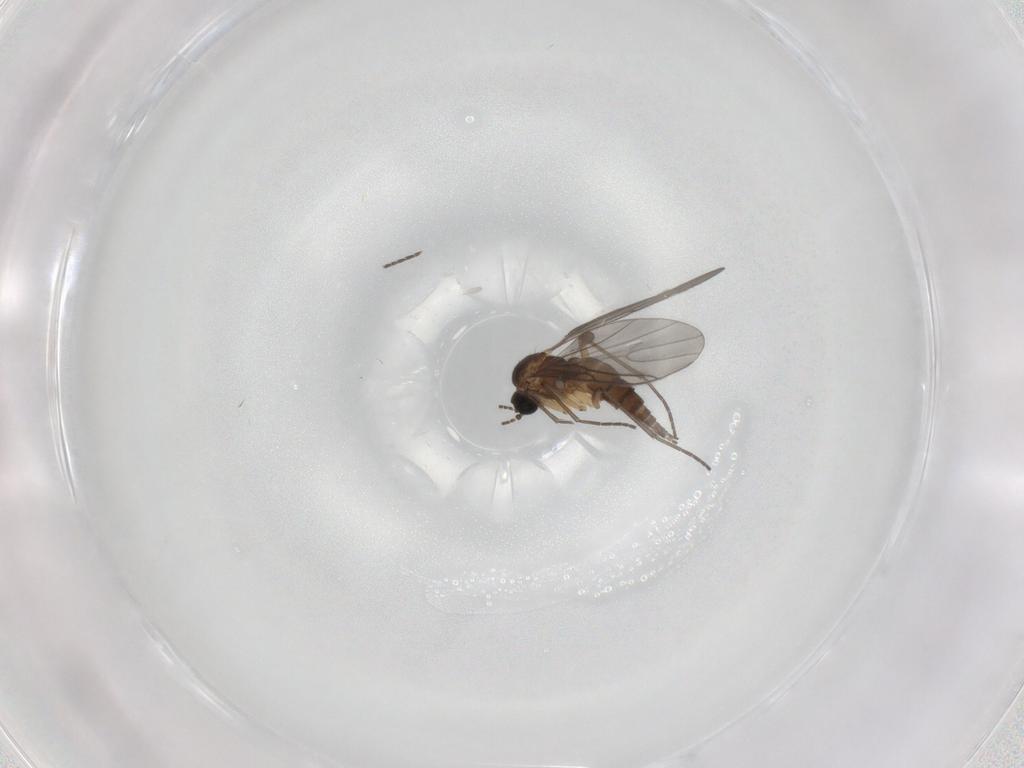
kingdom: Animalia
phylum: Arthropoda
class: Insecta
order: Diptera
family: Sciaridae
